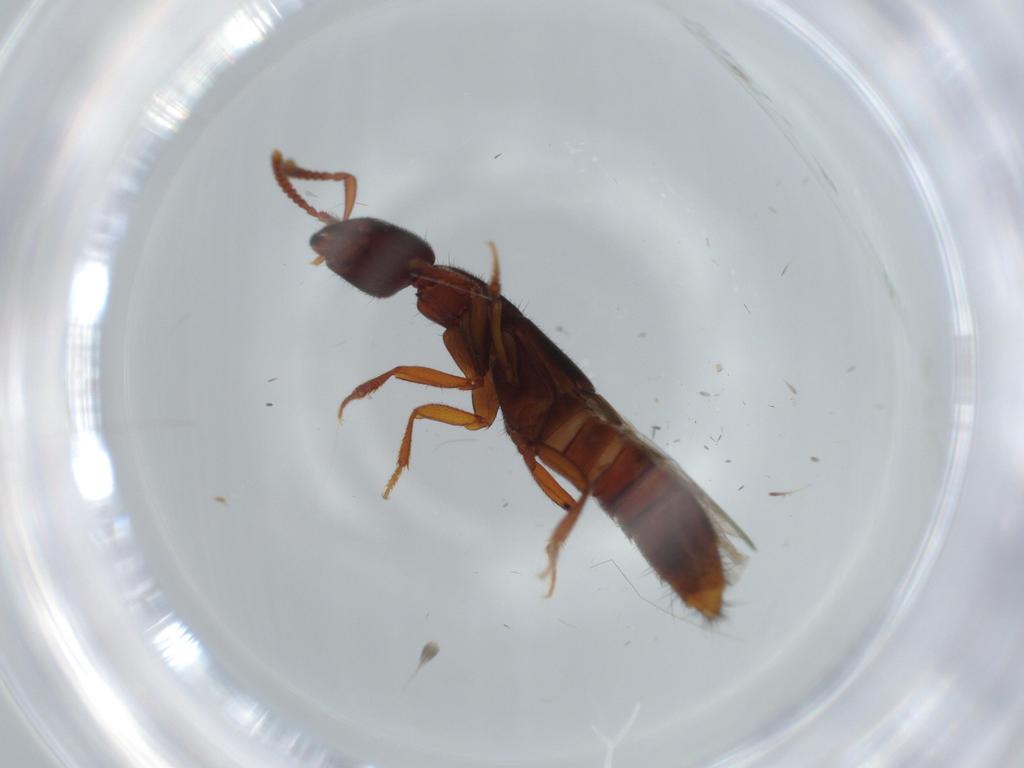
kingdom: Animalia
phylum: Arthropoda
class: Insecta
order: Coleoptera
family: Staphylinidae
